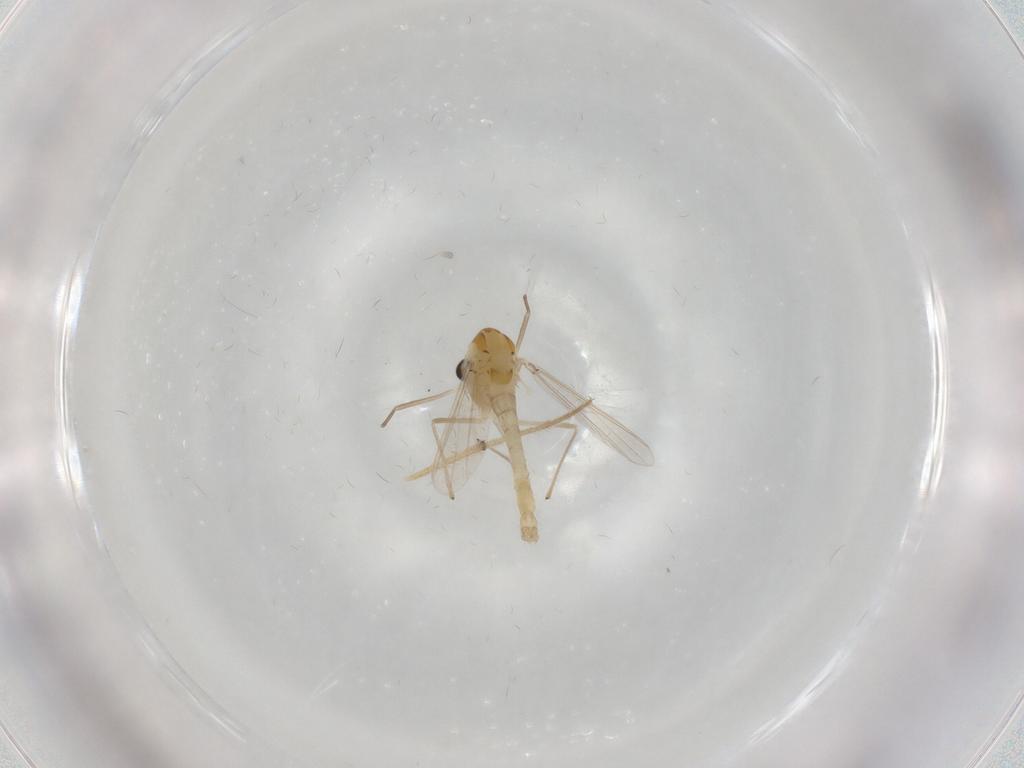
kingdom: Animalia
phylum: Arthropoda
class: Insecta
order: Diptera
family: Chironomidae
